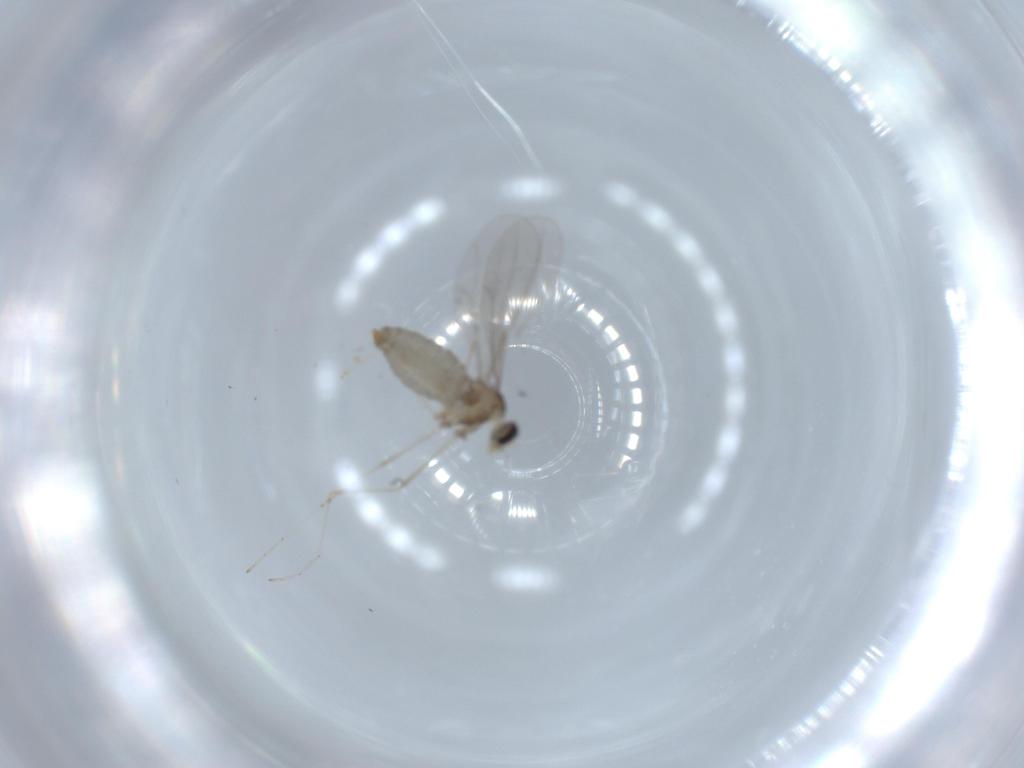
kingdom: Animalia
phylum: Arthropoda
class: Insecta
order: Diptera
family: Cecidomyiidae
